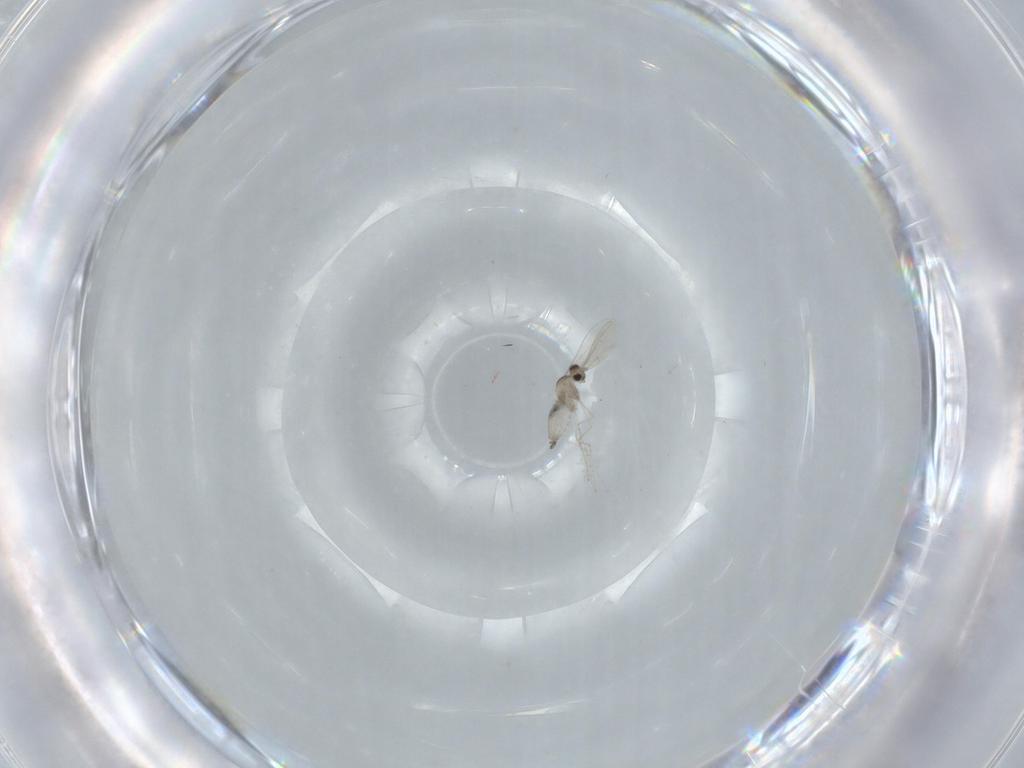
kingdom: Animalia
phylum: Arthropoda
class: Insecta
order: Diptera
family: Cecidomyiidae
